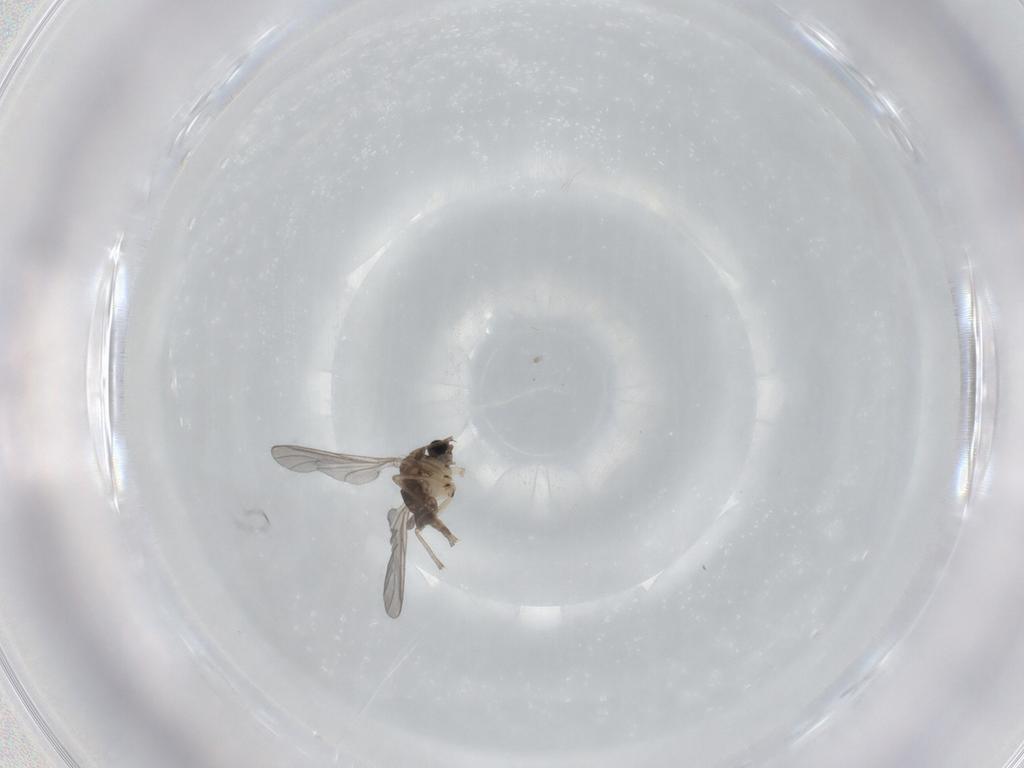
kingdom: Animalia
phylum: Arthropoda
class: Insecta
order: Diptera
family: Sciaridae
